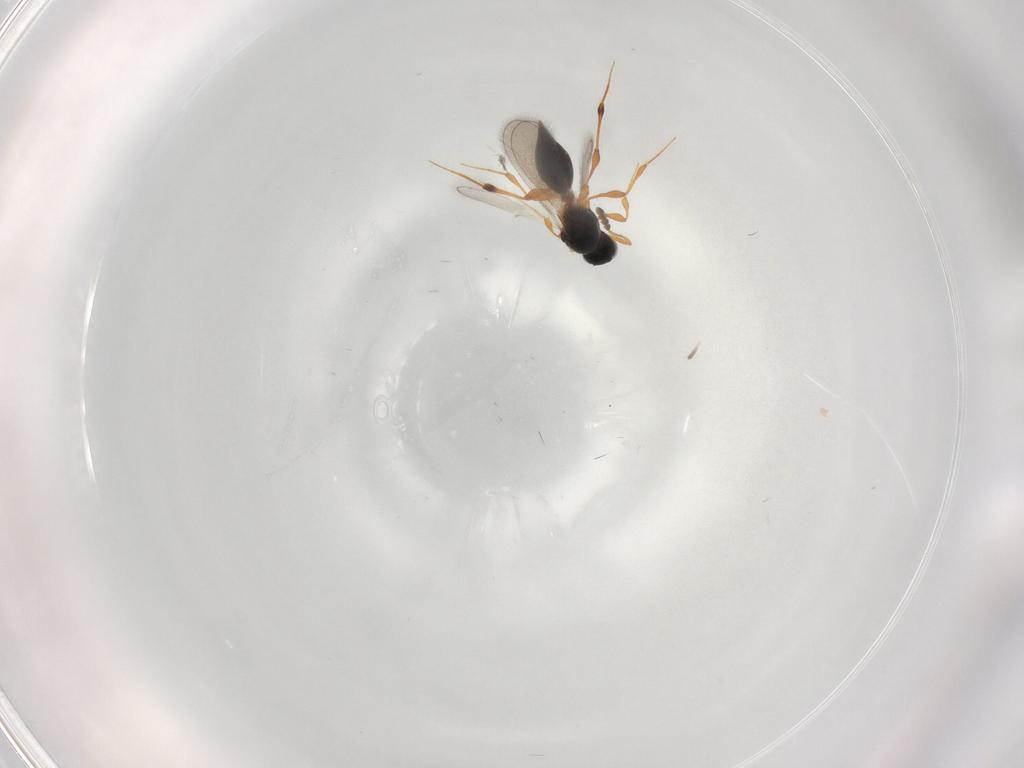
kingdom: Animalia
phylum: Arthropoda
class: Insecta
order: Hymenoptera
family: Platygastridae
